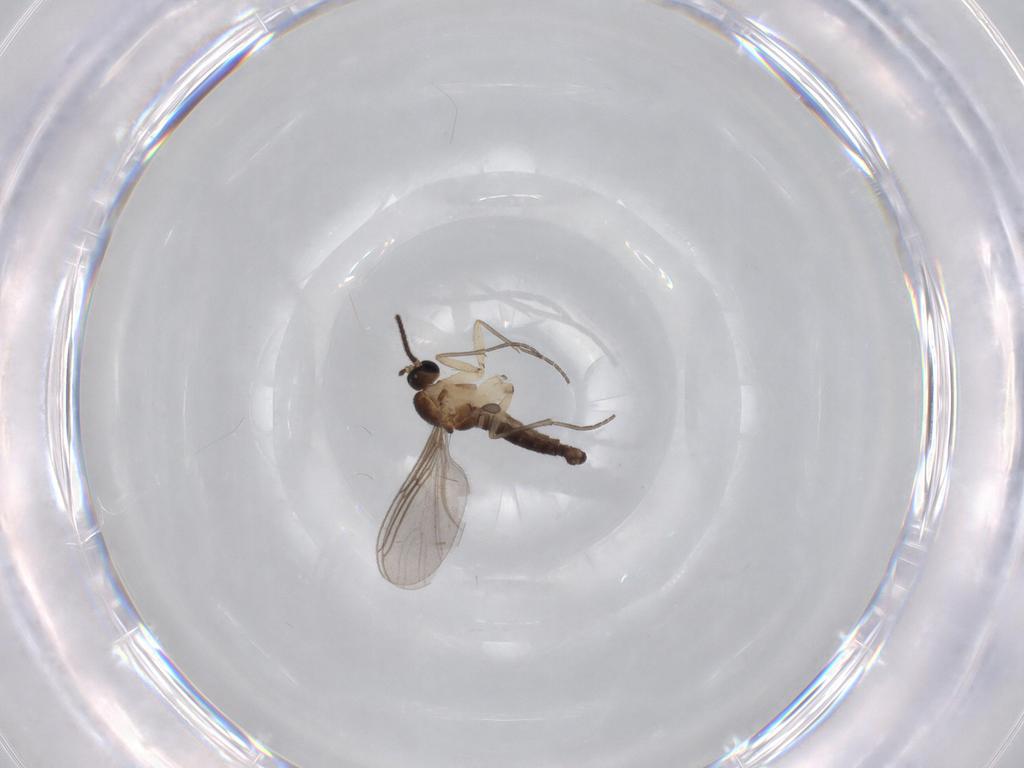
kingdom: Animalia
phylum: Arthropoda
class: Insecta
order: Diptera
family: Sciaridae
